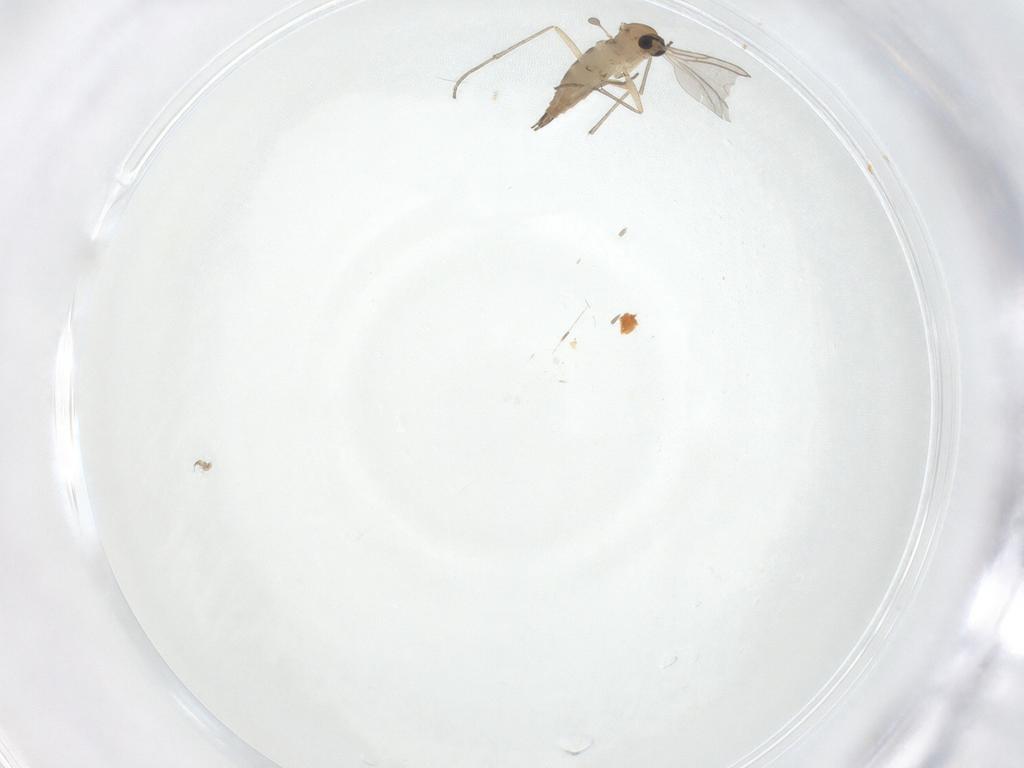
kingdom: Animalia
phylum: Arthropoda
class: Insecta
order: Diptera
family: Sciaridae
